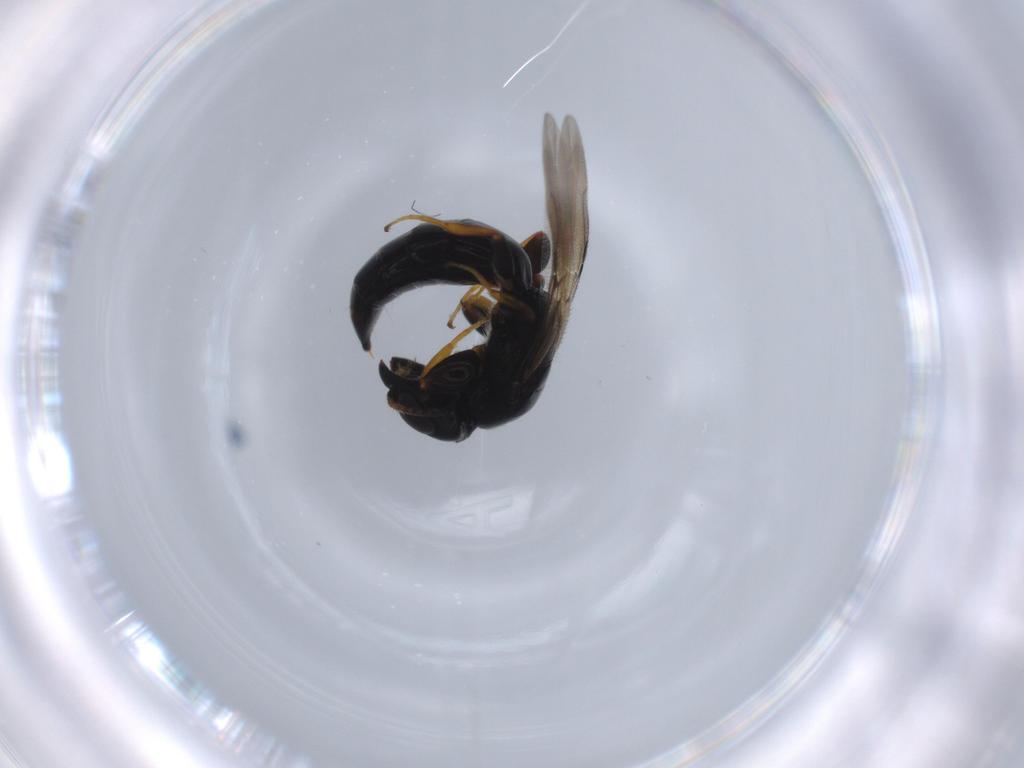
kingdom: Animalia
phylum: Arthropoda
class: Insecta
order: Hymenoptera
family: Bethylidae
